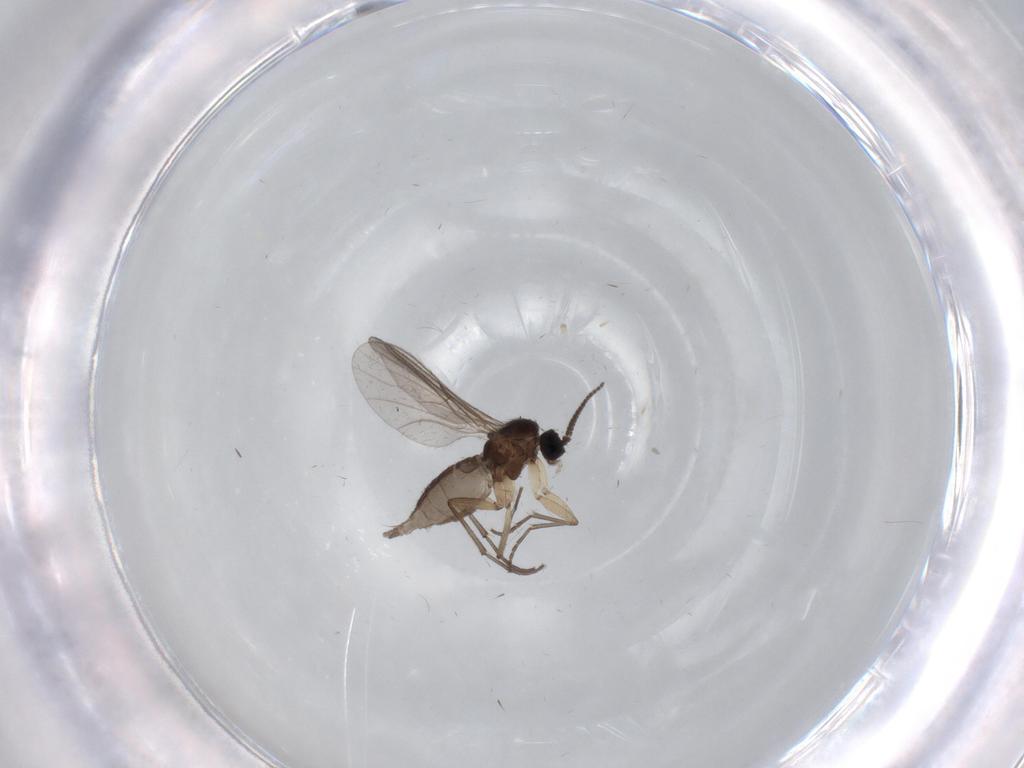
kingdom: Animalia
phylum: Arthropoda
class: Insecta
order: Diptera
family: Sciaridae
